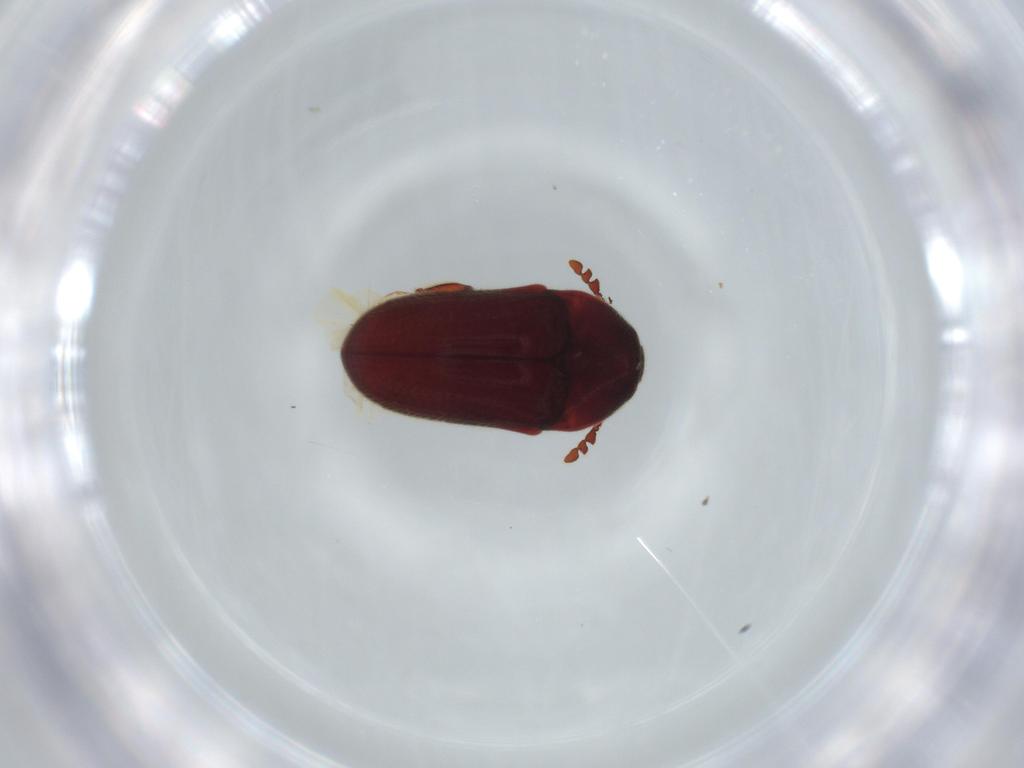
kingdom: Animalia
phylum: Arthropoda
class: Insecta
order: Coleoptera
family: Throscidae
